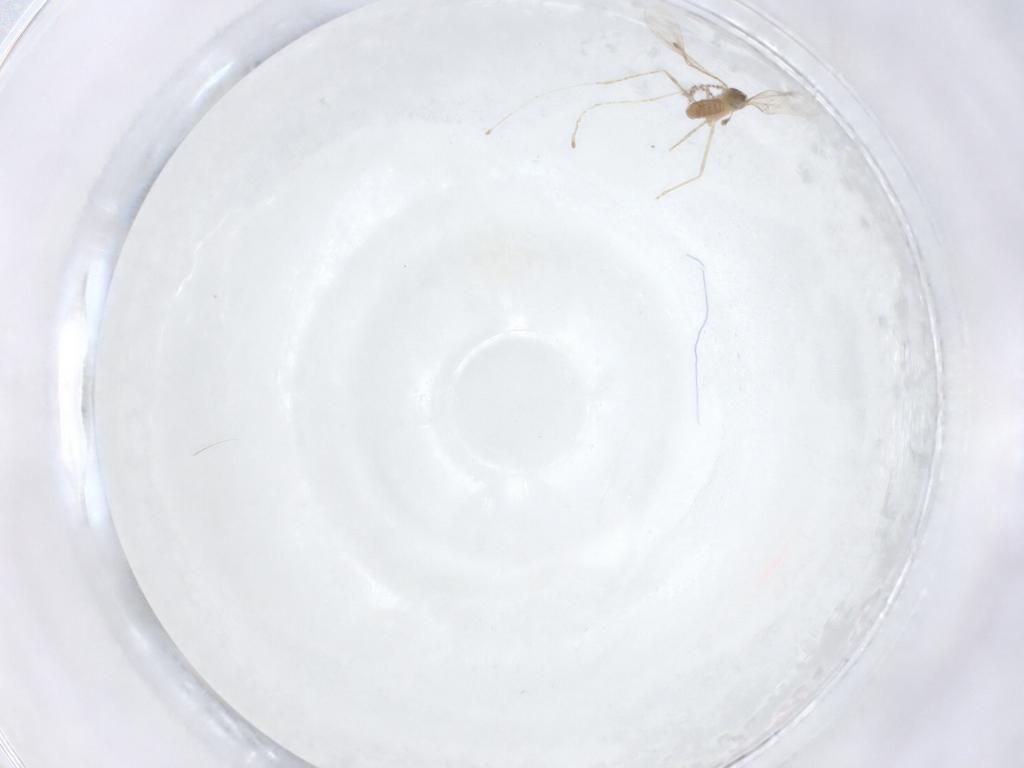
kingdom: Animalia
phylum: Arthropoda
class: Insecta
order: Diptera
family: Cecidomyiidae
